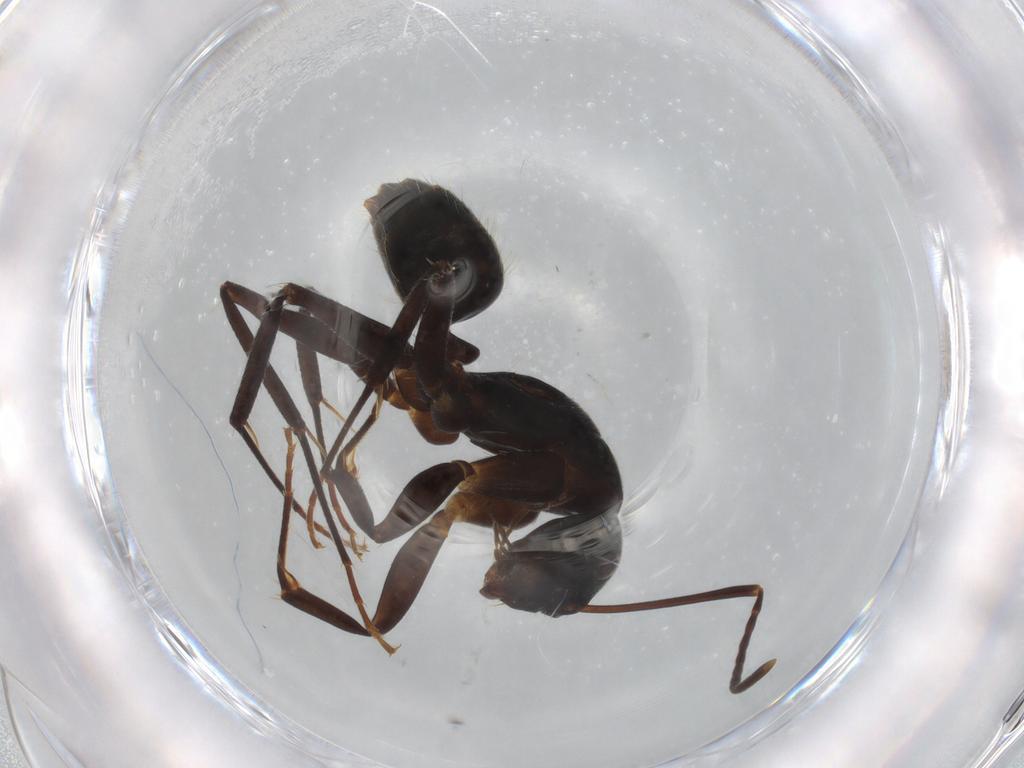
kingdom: Animalia
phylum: Arthropoda
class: Insecta
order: Hymenoptera
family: Formicidae
